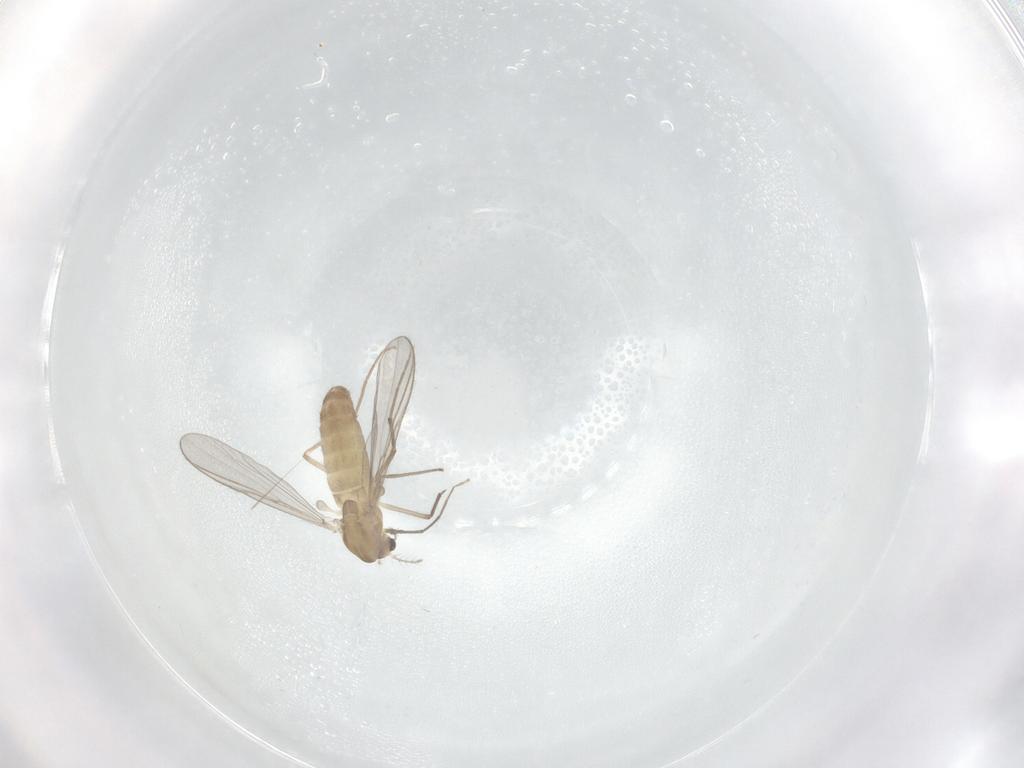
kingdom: Animalia
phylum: Arthropoda
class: Insecta
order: Diptera
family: Chironomidae
